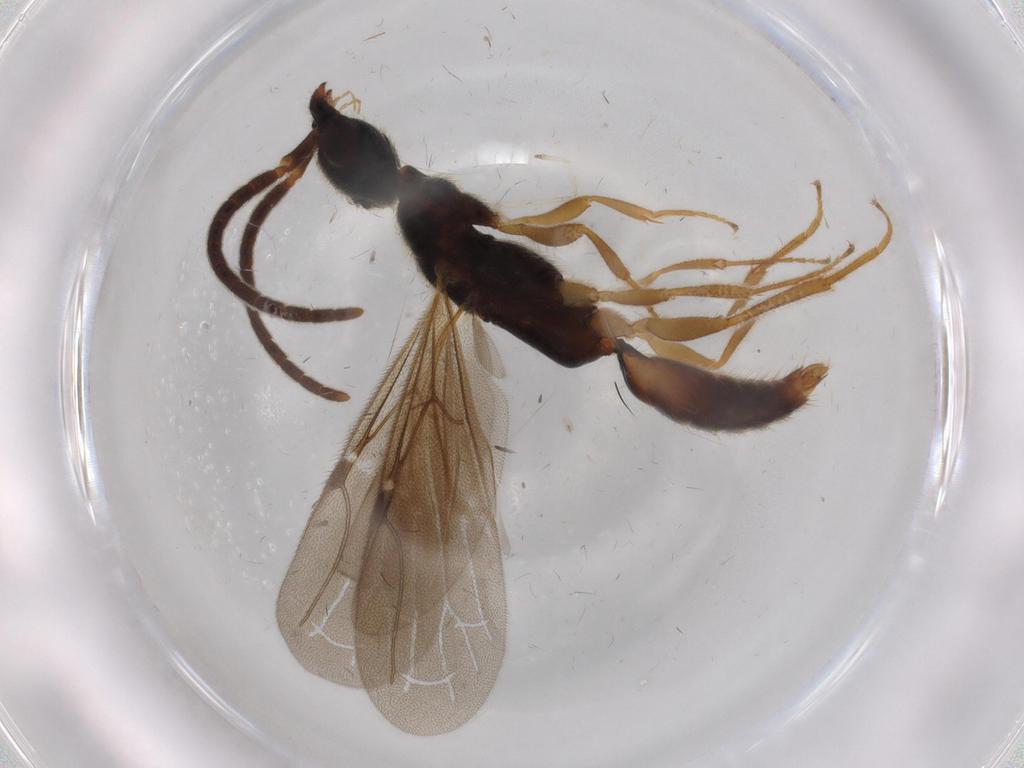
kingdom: Animalia
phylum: Arthropoda
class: Insecta
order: Hymenoptera
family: Bethylidae
